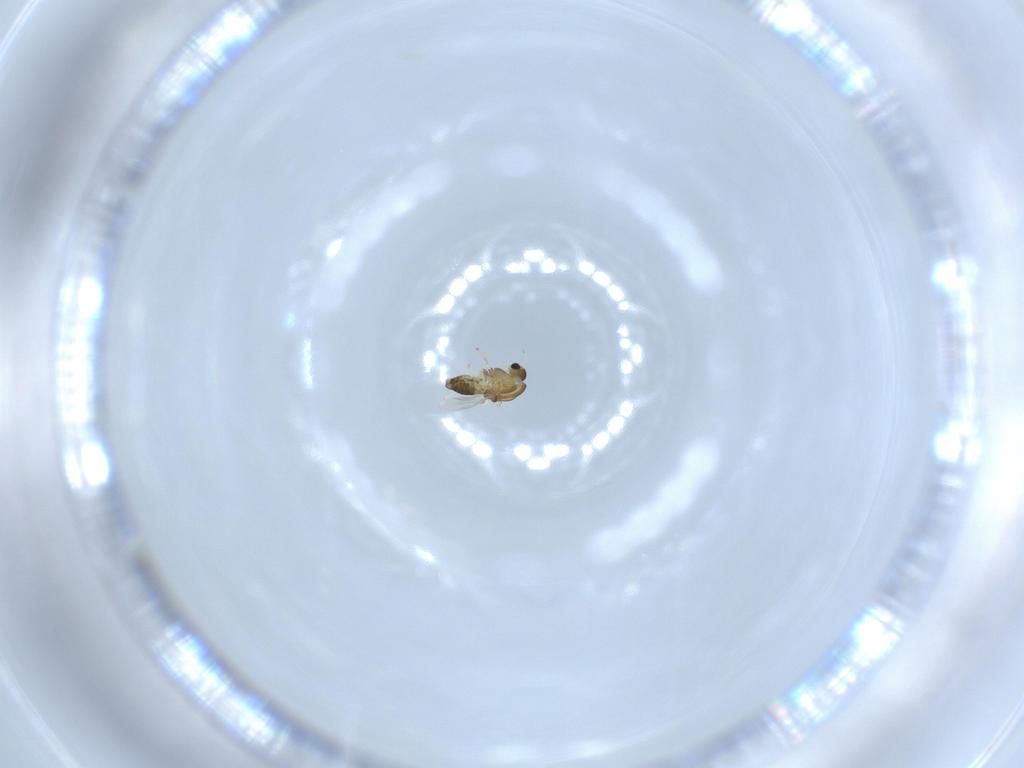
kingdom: Animalia
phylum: Arthropoda
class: Insecta
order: Diptera
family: Chironomidae
